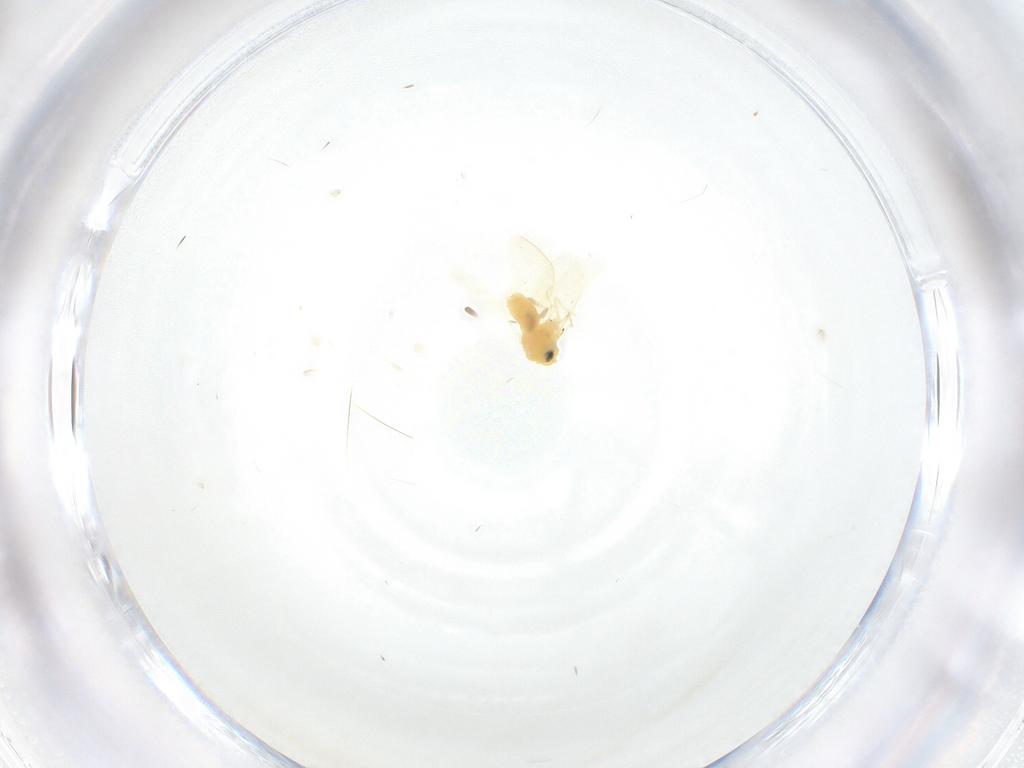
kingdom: Animalia
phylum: Arthropoda
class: Insecta
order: Hemiptera
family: Aleyrodidae
